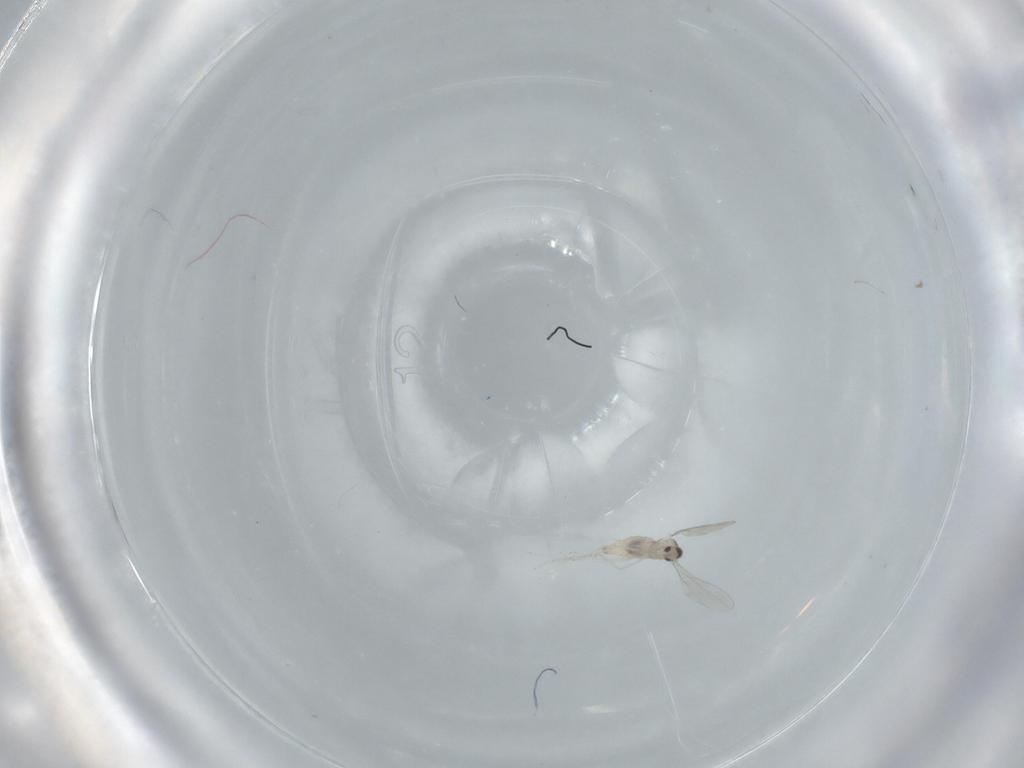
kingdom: Animalia
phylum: Arthropoda
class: Insecta
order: Diptera
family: Cecidomyiidae
